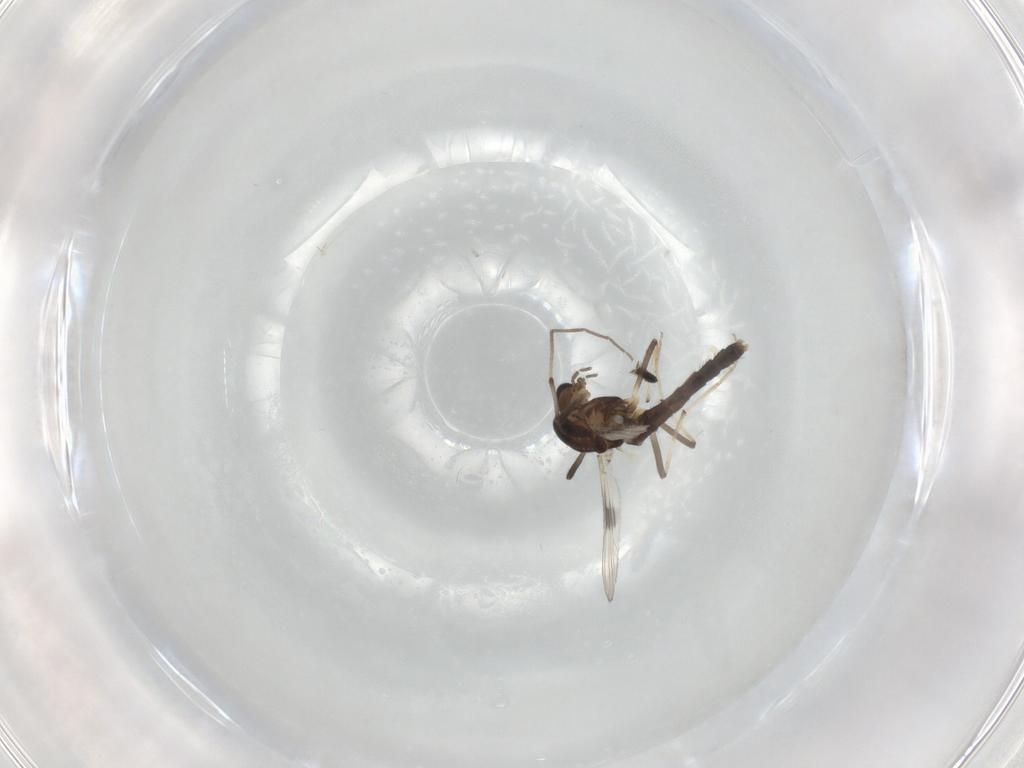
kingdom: Animalia
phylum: Arthropoda
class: Insecta
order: Diptera
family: Chironomidae
